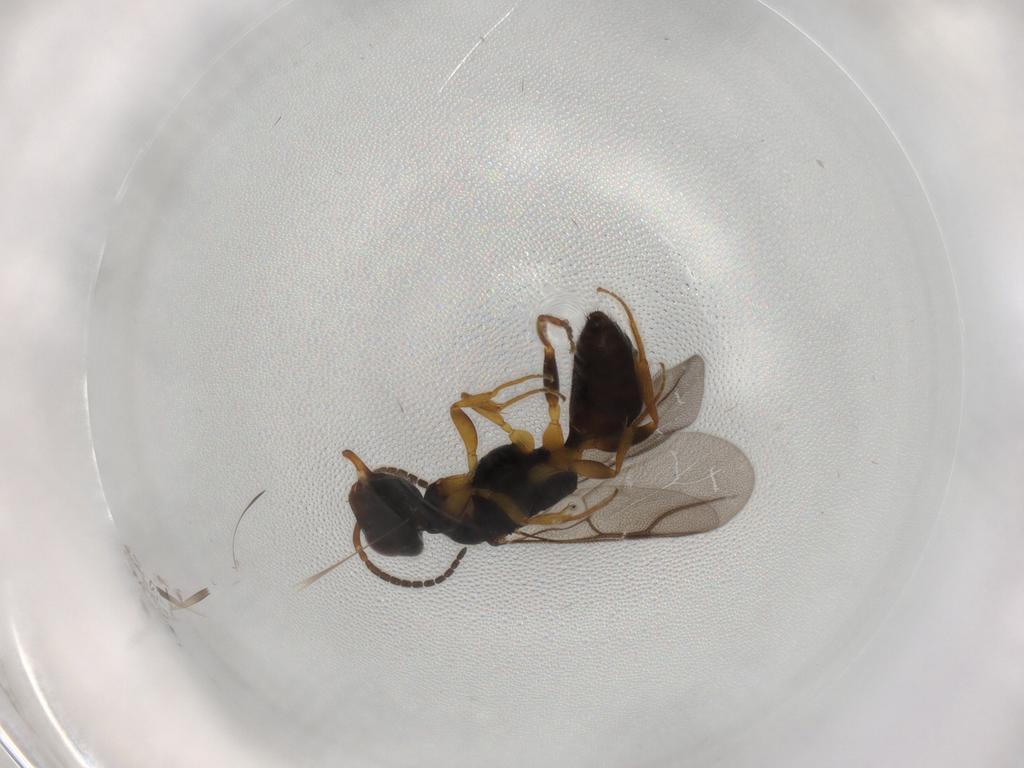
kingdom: Animalia
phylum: Arthropoda
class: Insecta
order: Hymenoptera
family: Bethylidae
